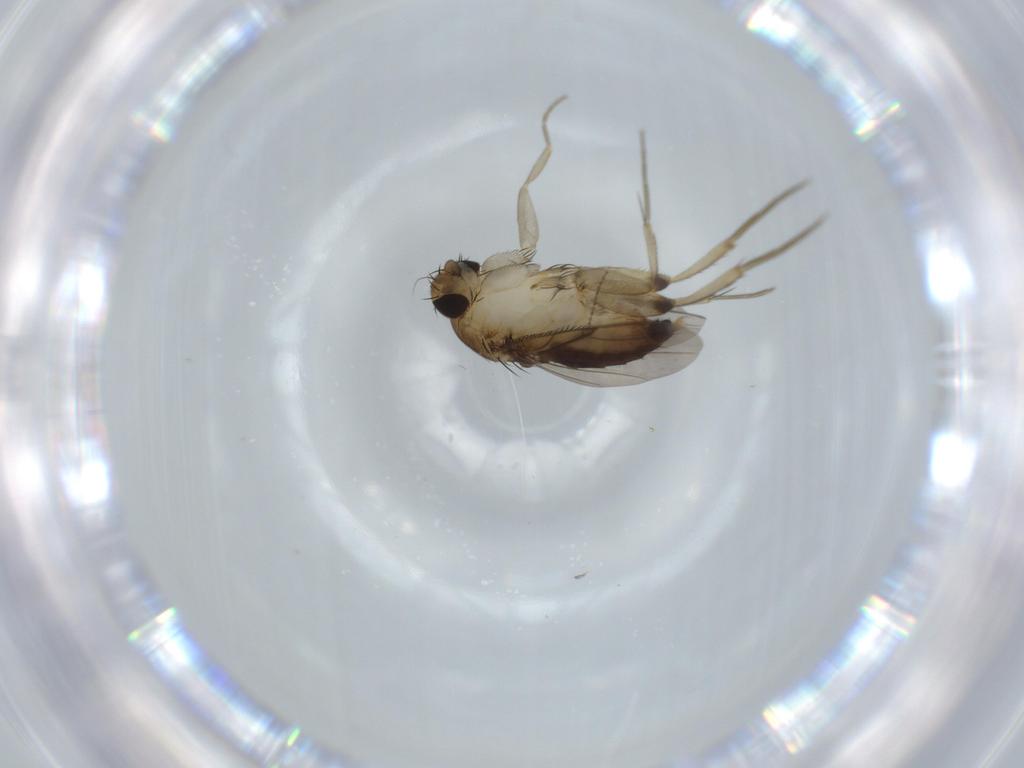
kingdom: Animalia
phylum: Arthropoda
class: Insecta
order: Diptera
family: Phoridae
